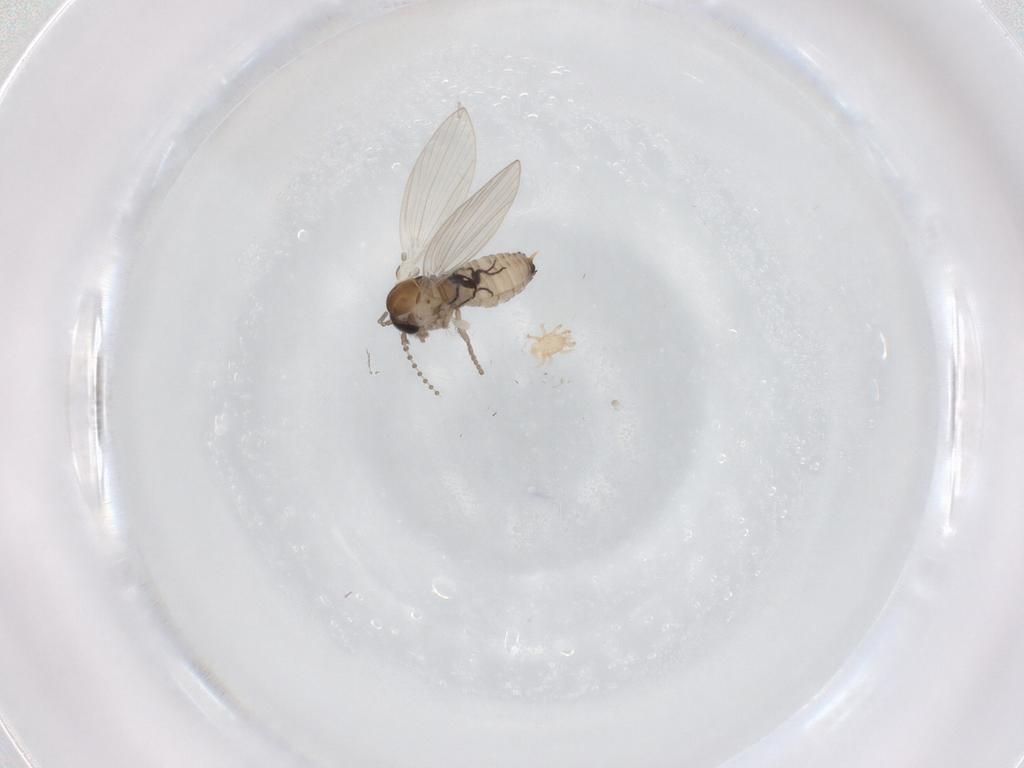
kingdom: Animalia
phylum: Arthropoda
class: Insecta
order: Diptera
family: Psychodidae
